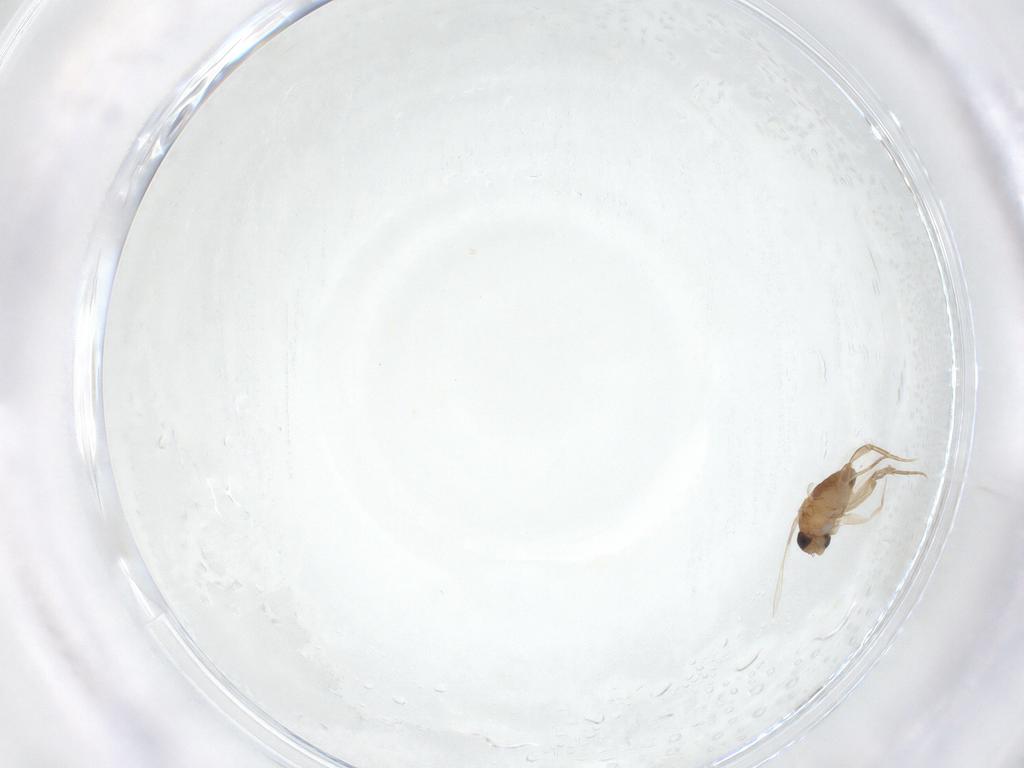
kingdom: Animalia
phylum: Arthropoda
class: Insecta
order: Diptera
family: Phoridae
